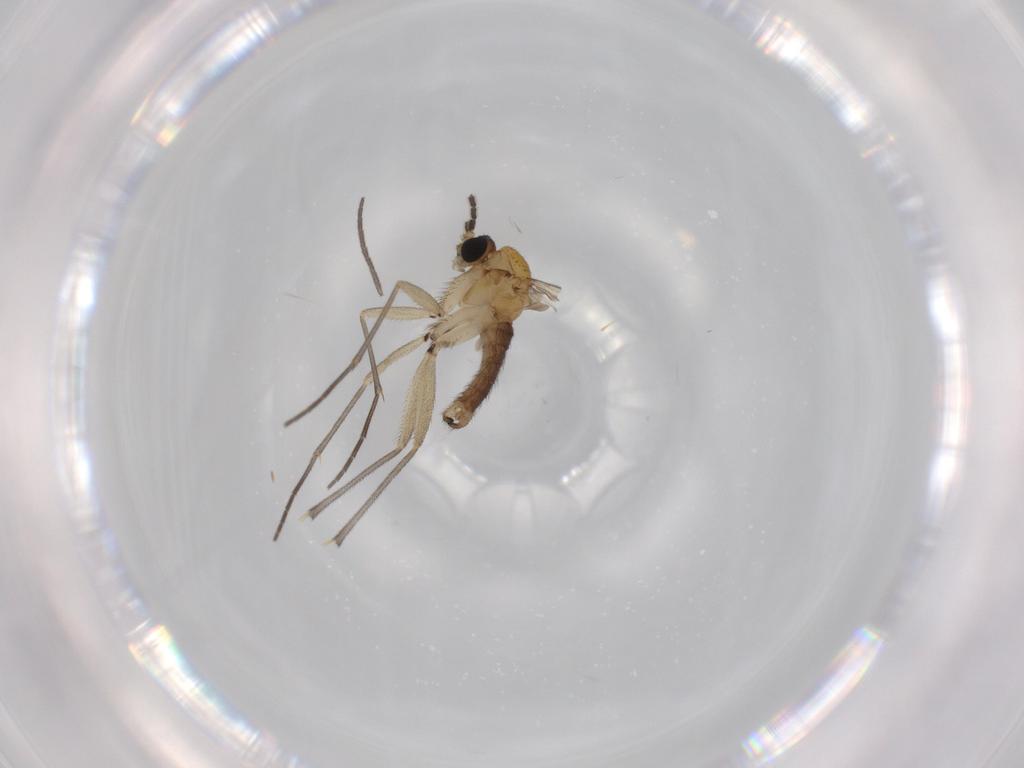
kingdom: Animalia
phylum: Arthropoda
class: Insecta
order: Diptera
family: Sciaridae
